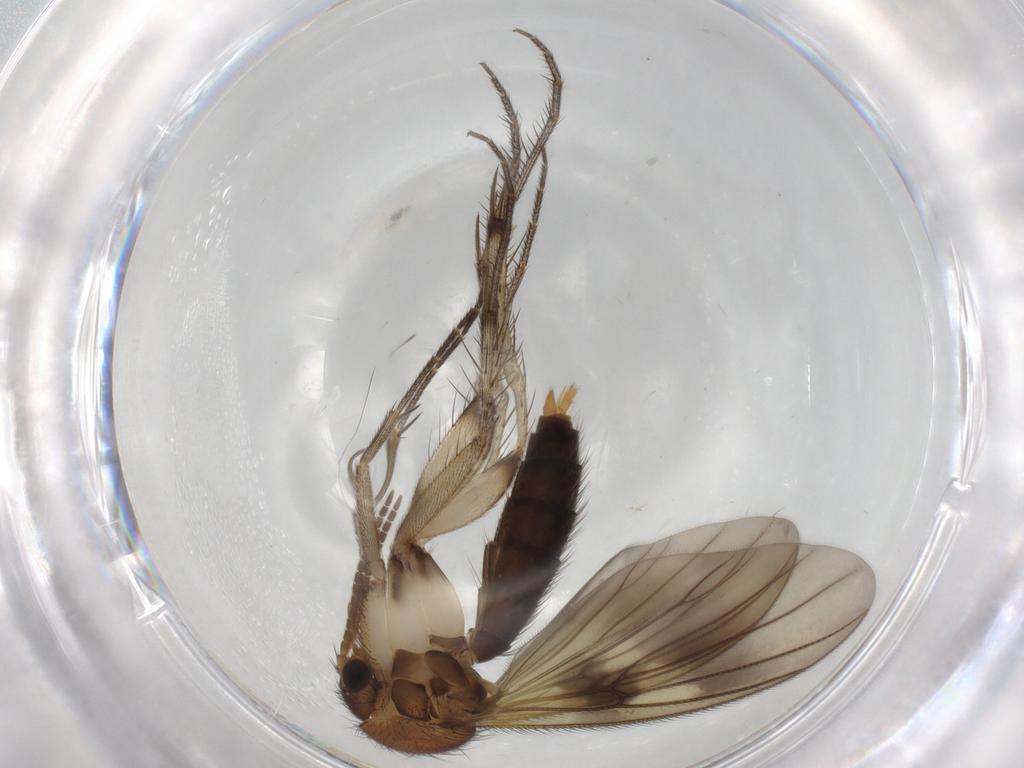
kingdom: Animalia
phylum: Arthropoda
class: Insecta
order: Diptera
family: Mycetophilidae
